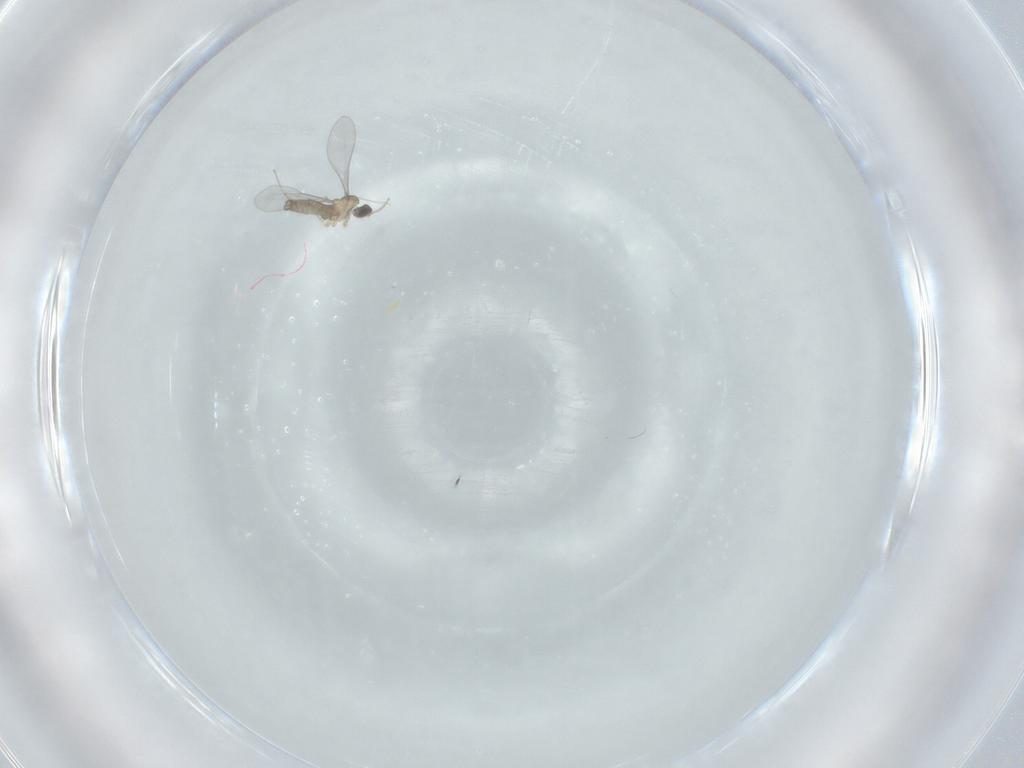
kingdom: Animalia
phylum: Arthropoda
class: Insecta
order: Diptera
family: Cecidomyiidae
